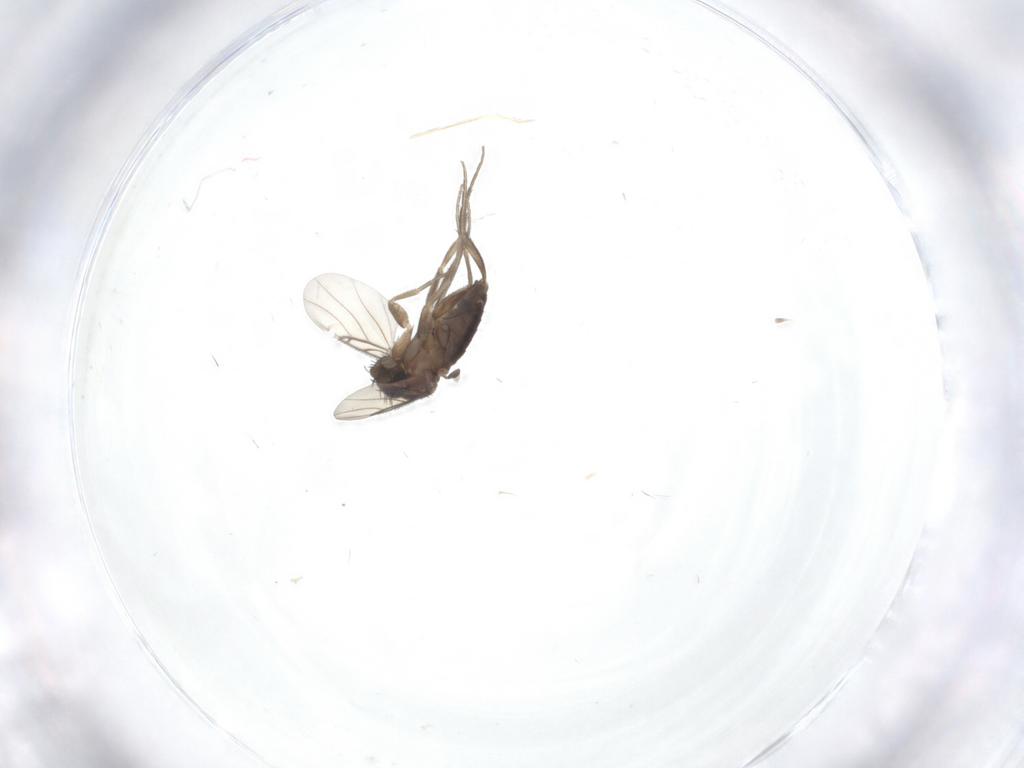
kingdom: Animalia
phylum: Arthropoda
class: Insecta
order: Diptera
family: Phoridae
